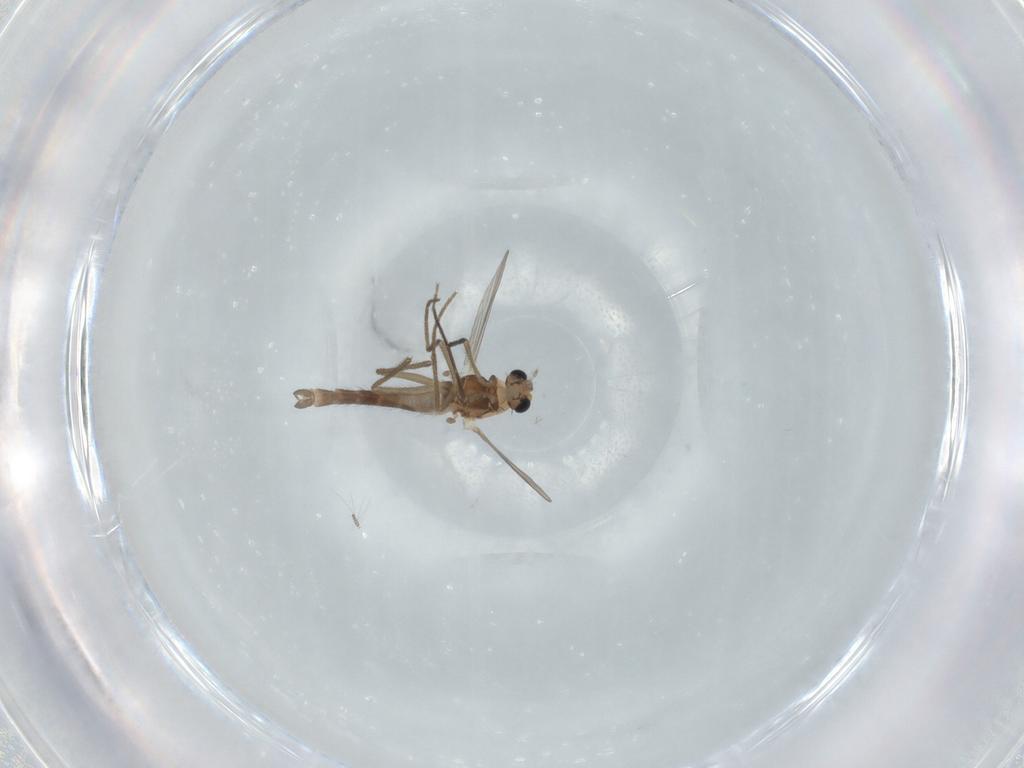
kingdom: Animalia
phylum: Arthropoda
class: Insecta
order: Diptera
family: Chironomidae
